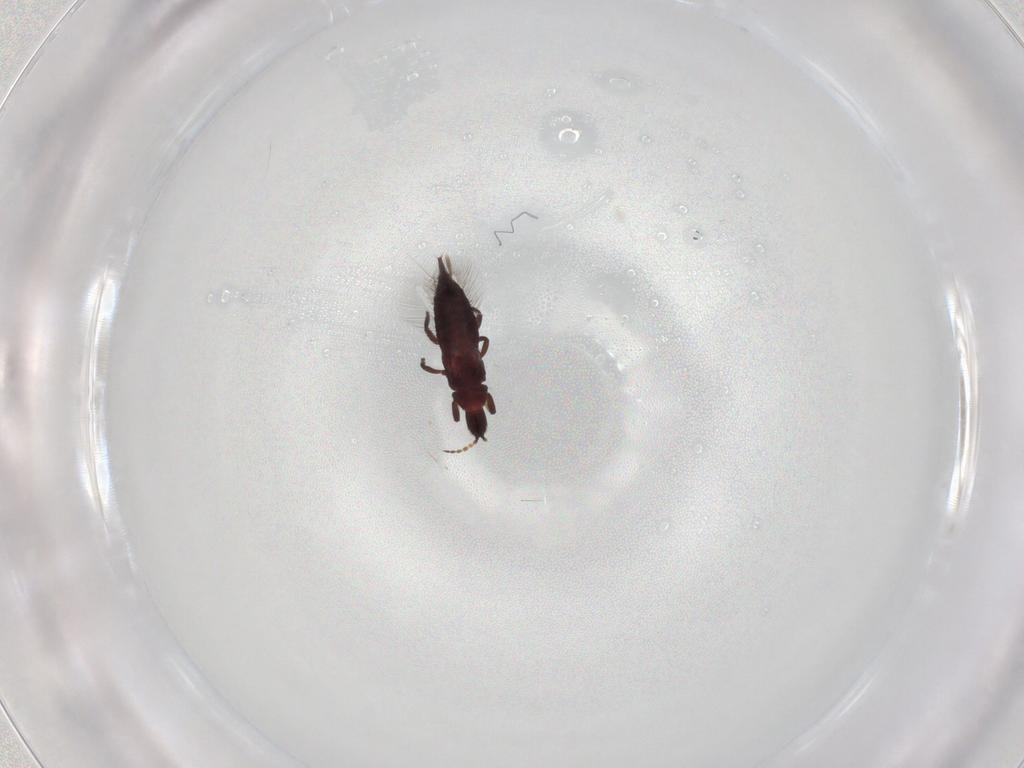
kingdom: Animalia
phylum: Arthropoda
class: Insecta
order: Thysanoptera
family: Phlaeothripidae
